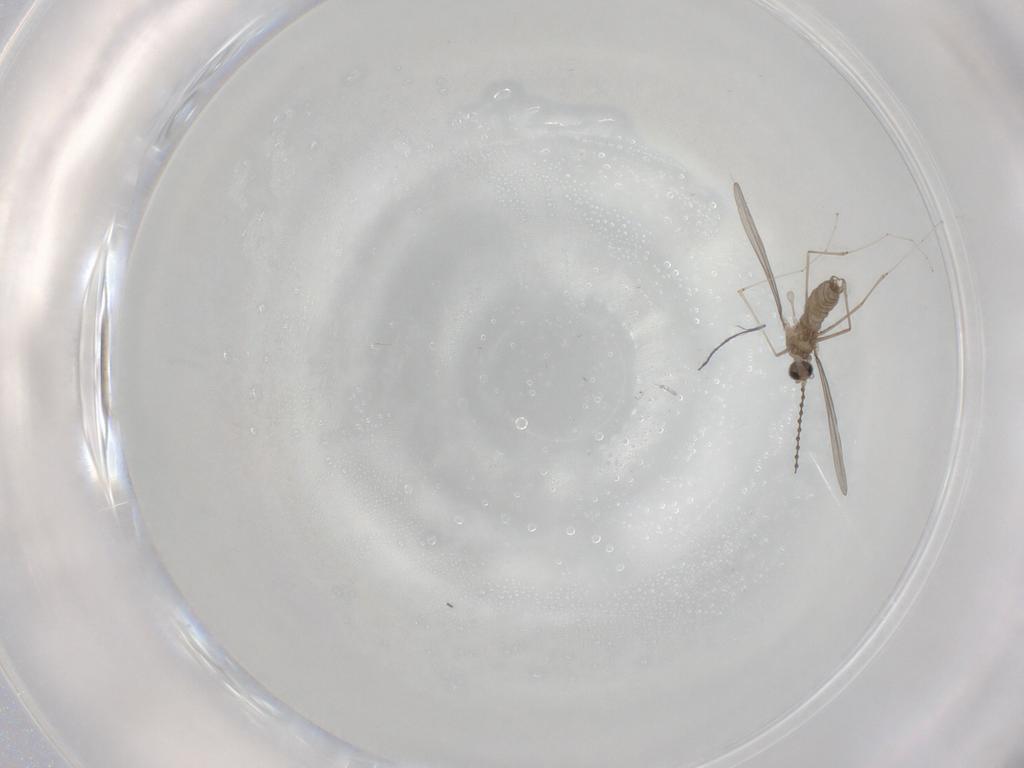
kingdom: Animalia
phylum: Arthropoda
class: Insecta
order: Diptera
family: Cecidomyiidae
